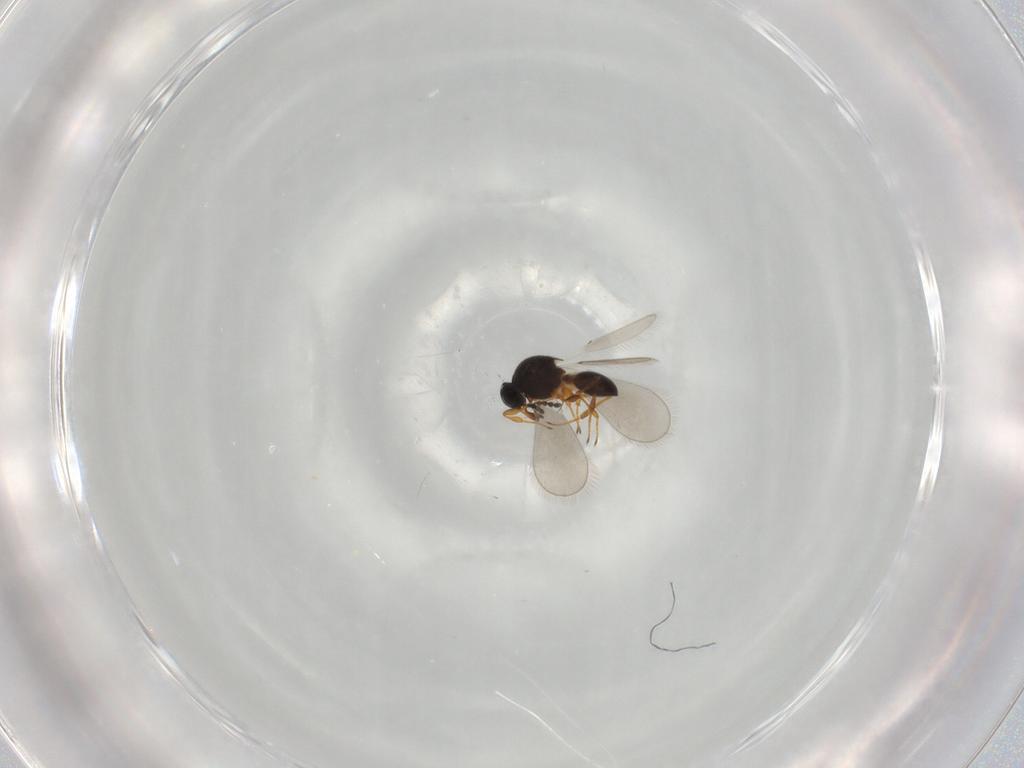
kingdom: Animalia
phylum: Arthropoda
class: Insecta
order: Hymenoptera
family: Platygastridae
